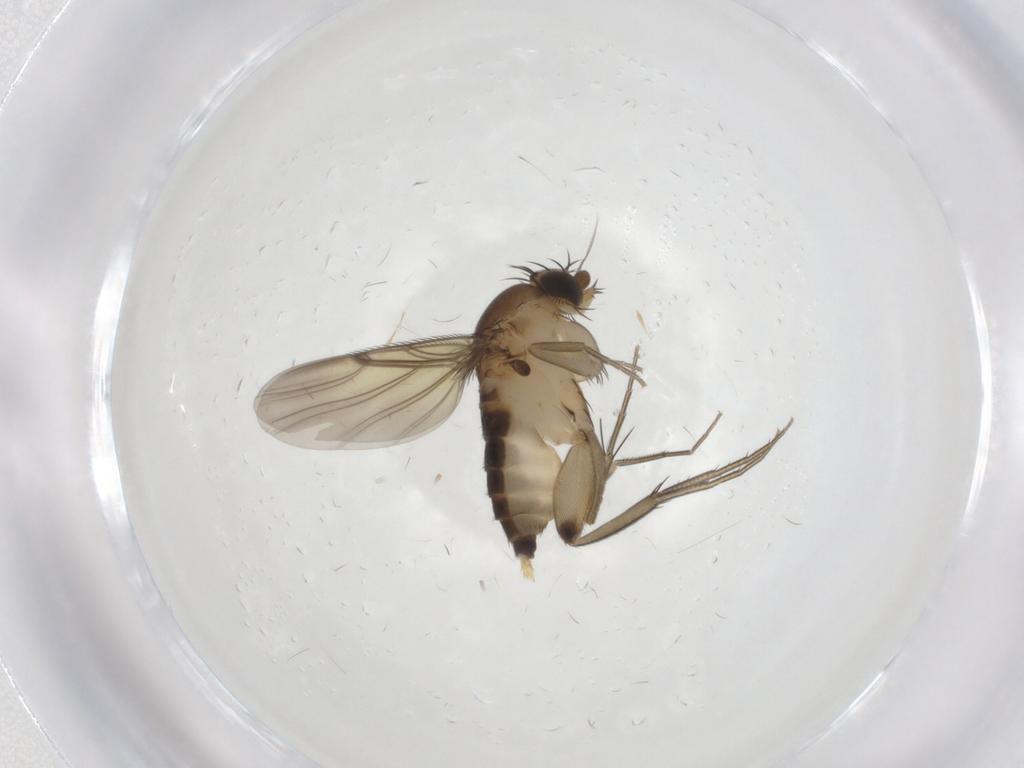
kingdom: Animalia
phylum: Arthropoda
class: Insecta
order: Diptera
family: Phoridae
